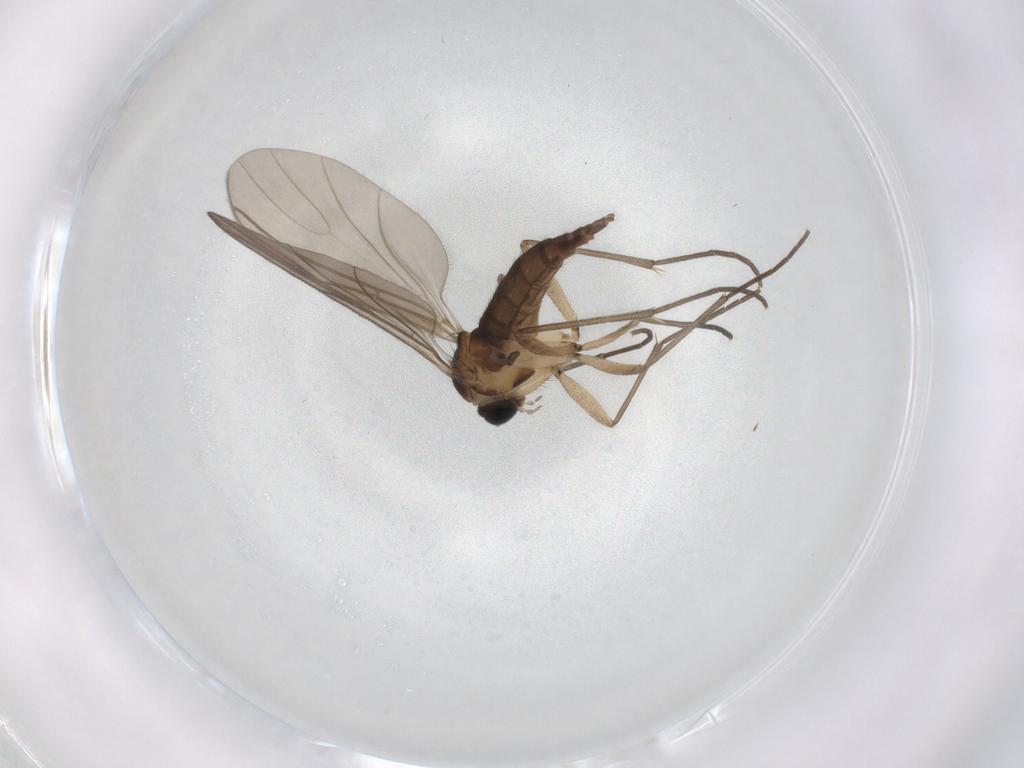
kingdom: Animalia
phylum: Arthropoda
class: Insecta
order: Diptera
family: Sciaridae
